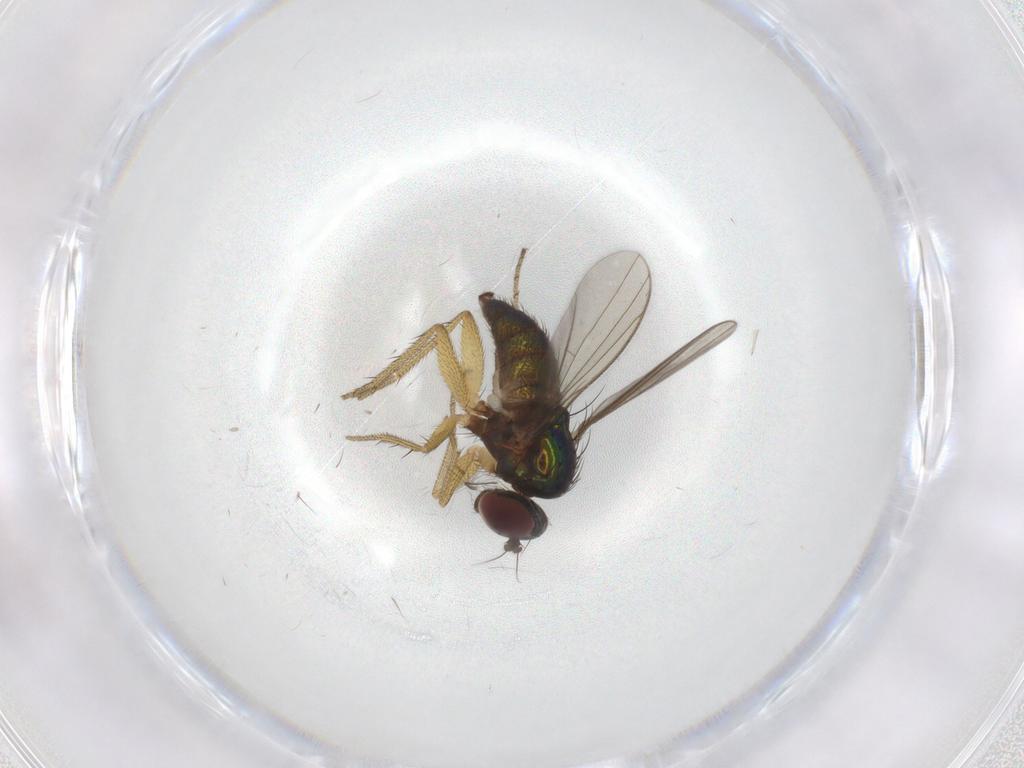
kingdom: Animalia
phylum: Arthropoda
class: Insecta
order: Diptera
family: Chironomidae
